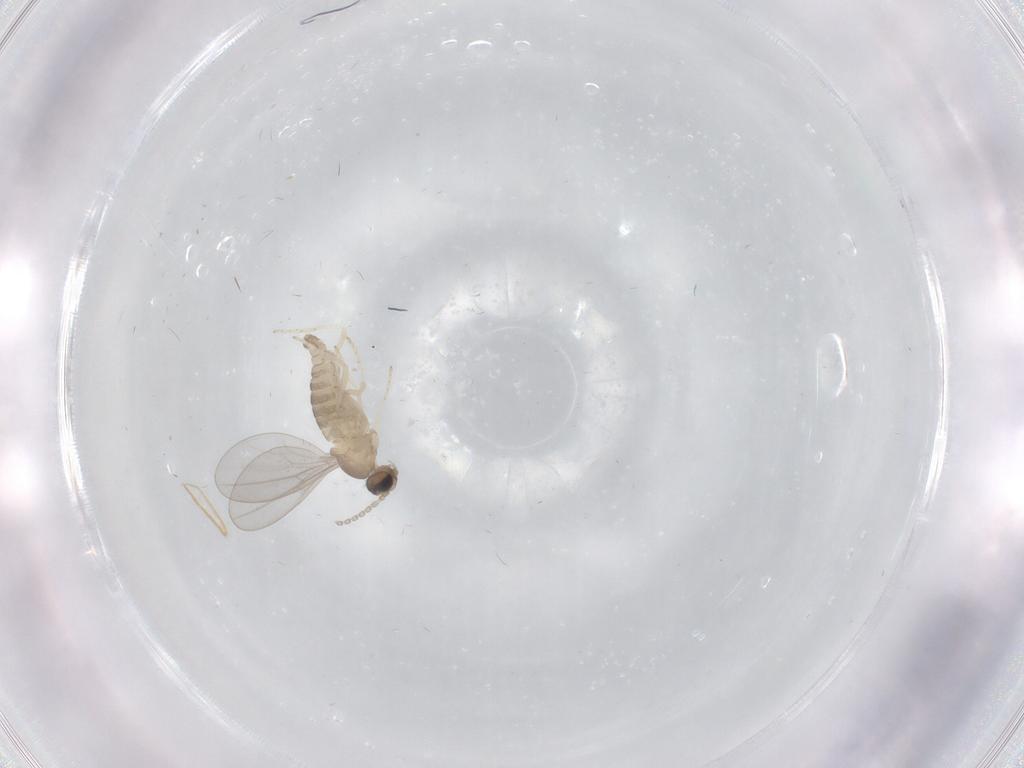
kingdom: Animalia
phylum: Arthropoda
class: Insecta
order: Diptera
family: Cecidomyiidae
